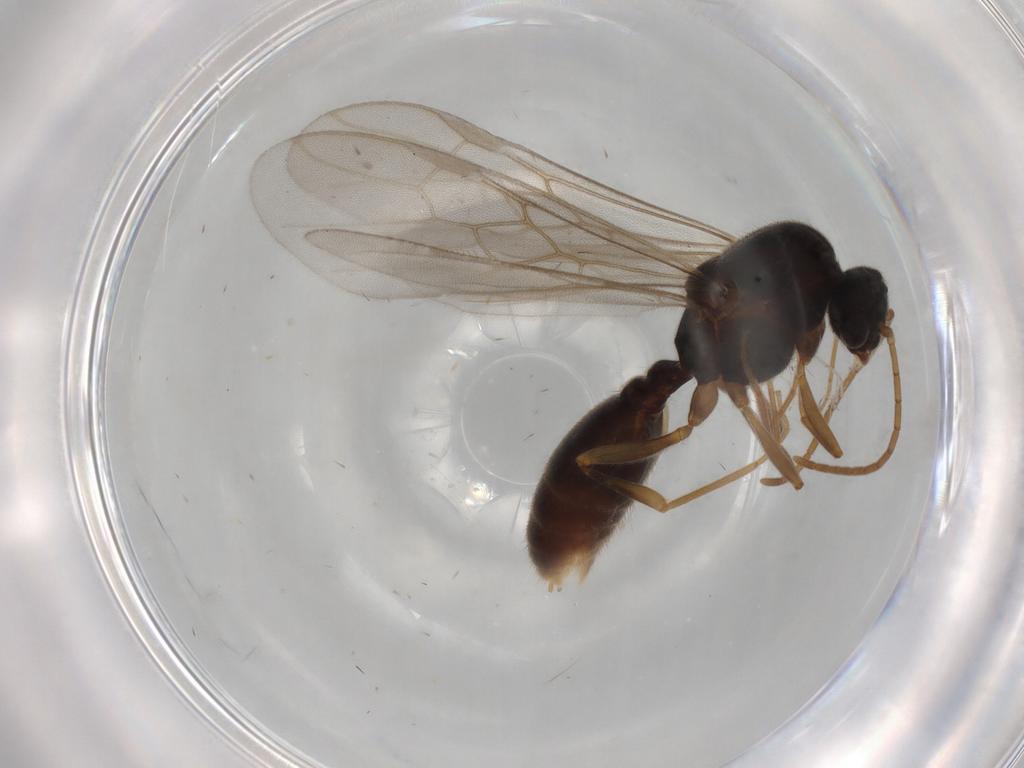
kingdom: Animalia
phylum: Arthropoda
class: Insecta
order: Hymenoptera
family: Formicidae
